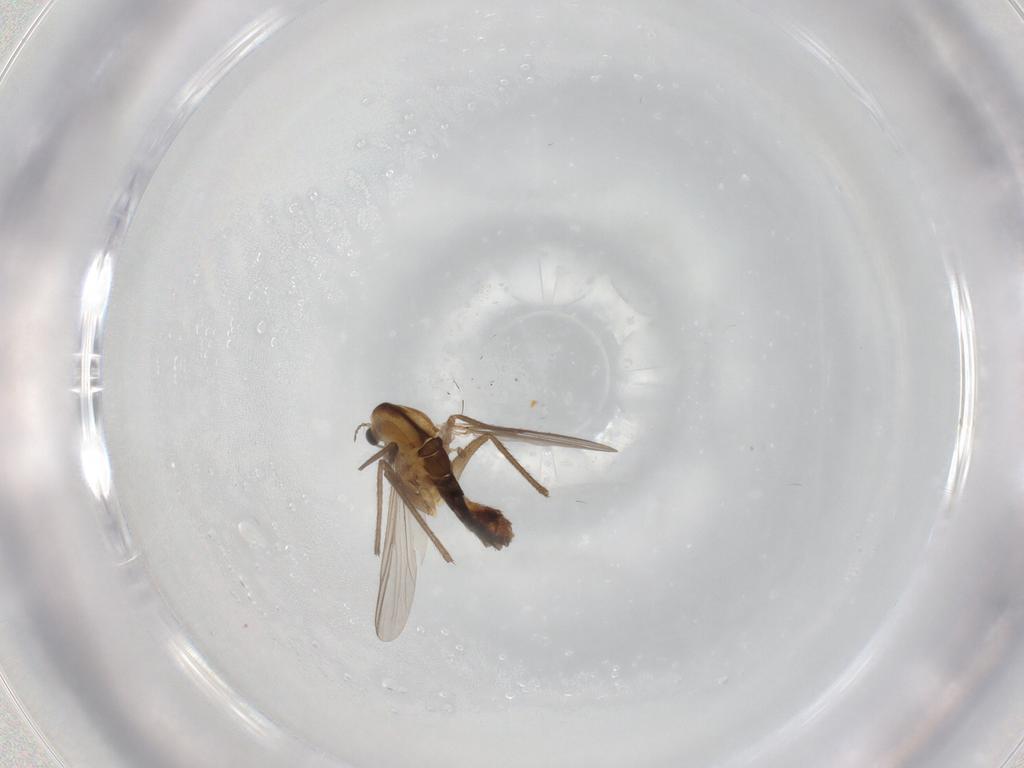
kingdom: Animalia
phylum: Arthropoda
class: Insecta
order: Diptera
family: Chironomidae
